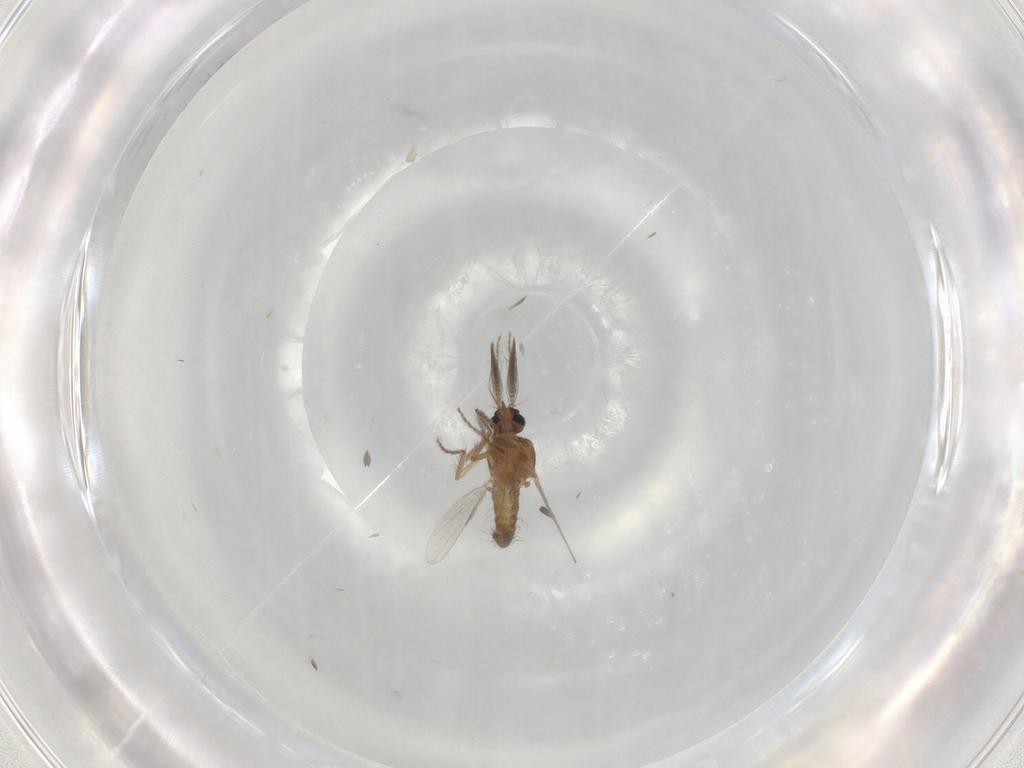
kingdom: Animalia
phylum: Arthropoda
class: Insecta
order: Diptera
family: Ceratopogonidae
